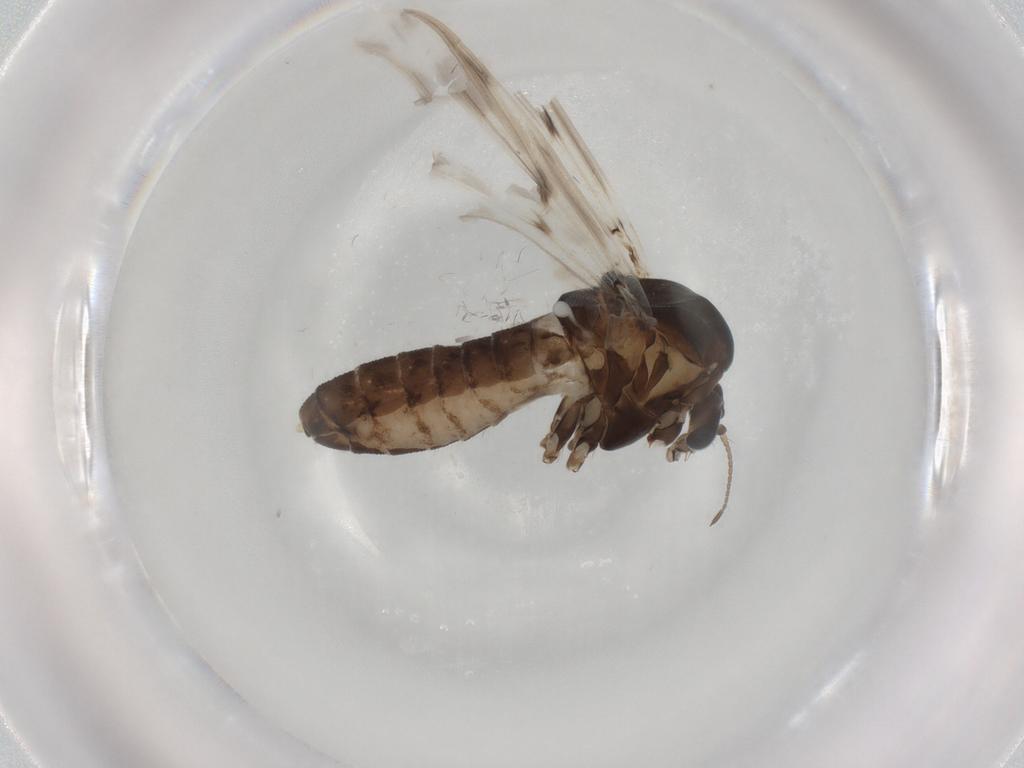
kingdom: Animalia
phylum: Arthropoda
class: Insecta
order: Diptera
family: Chironomidae
